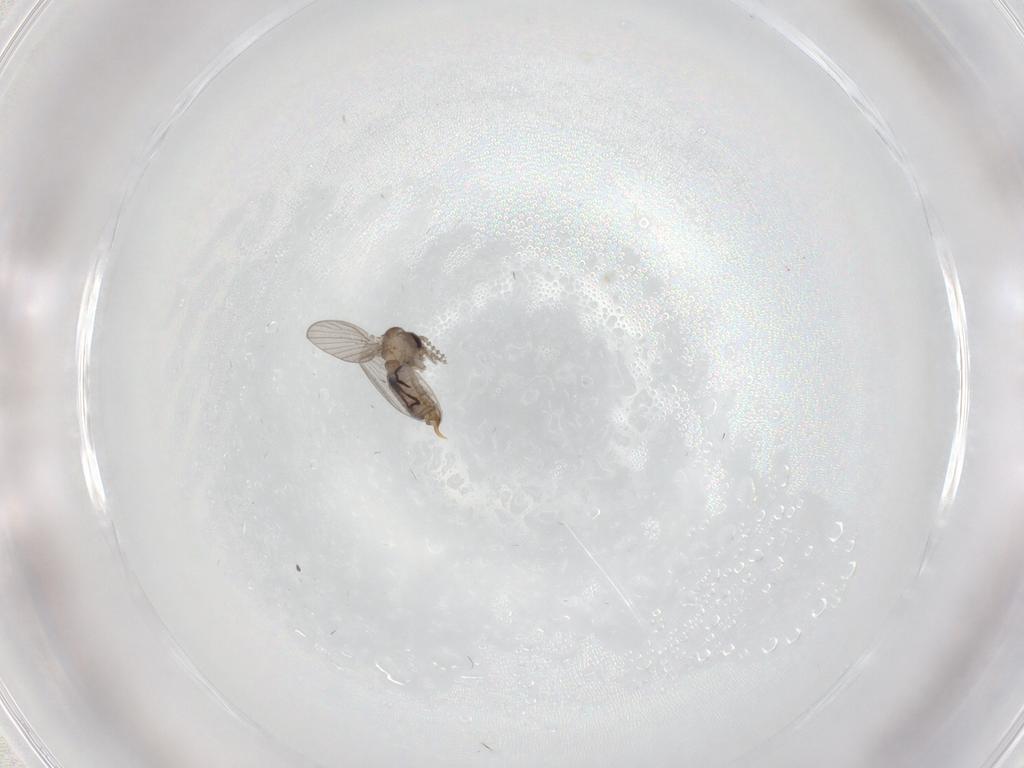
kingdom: Animalia
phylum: Arthropoda
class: Insecta
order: Diptera
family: Psychodidae
